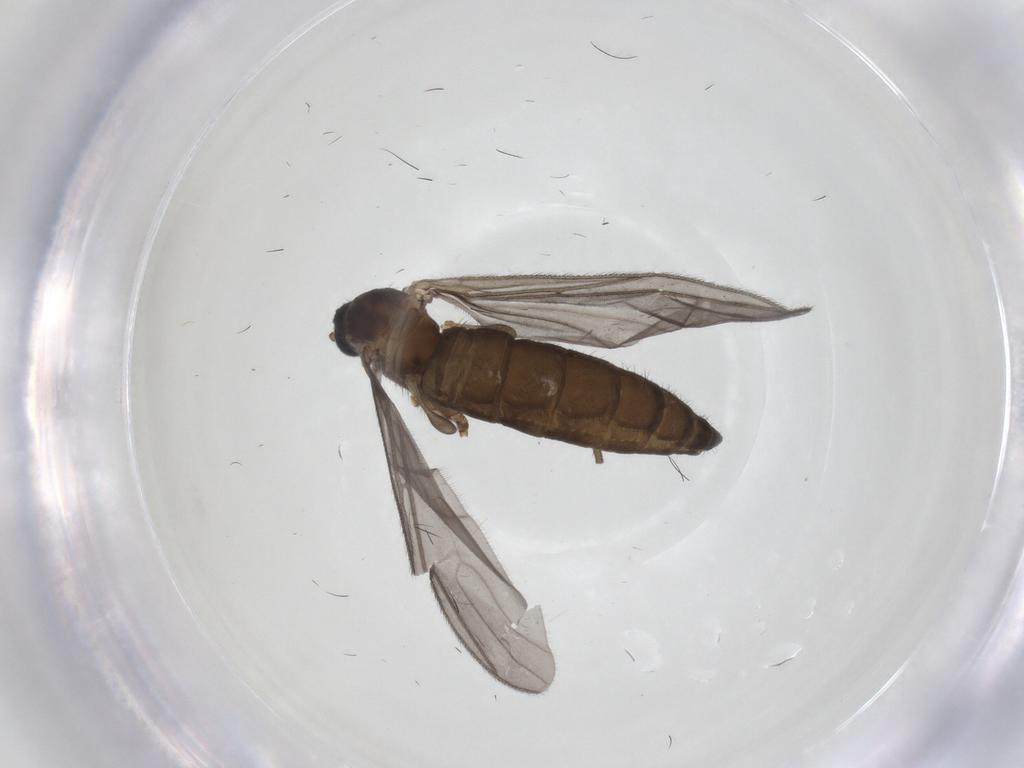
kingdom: Animalia
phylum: Arthropoda
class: Insecta
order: Diptera
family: Sciaridae
